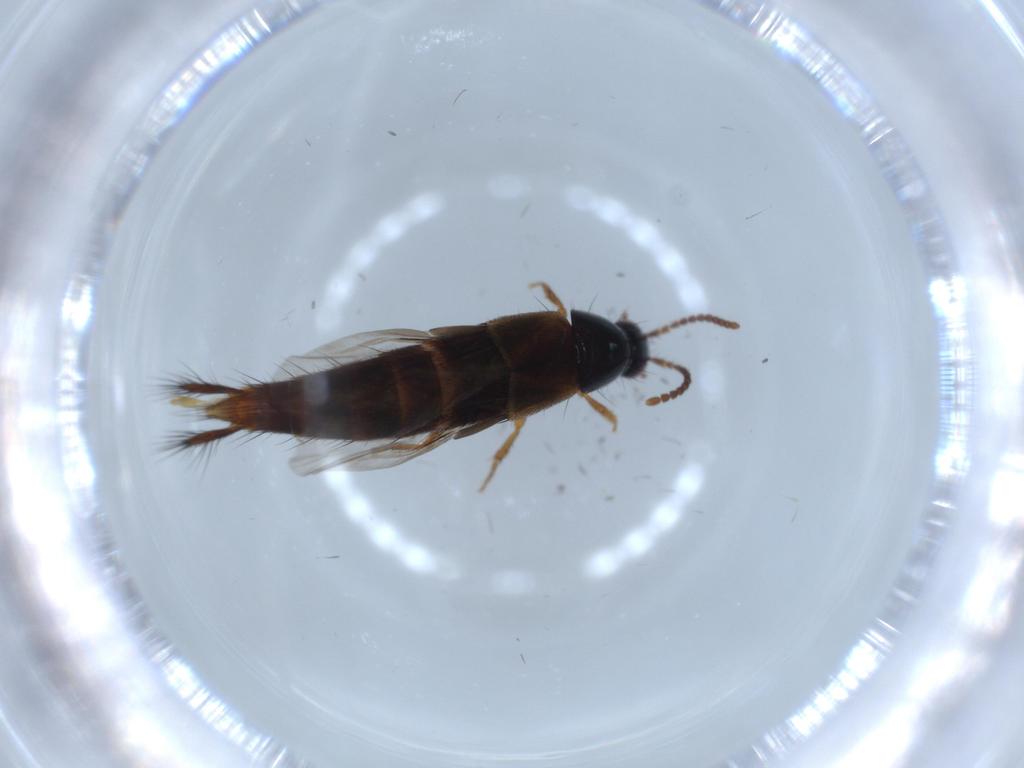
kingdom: Animalia
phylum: Arthropoda
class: Insecta
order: Coleoptera
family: Staphylinidae
